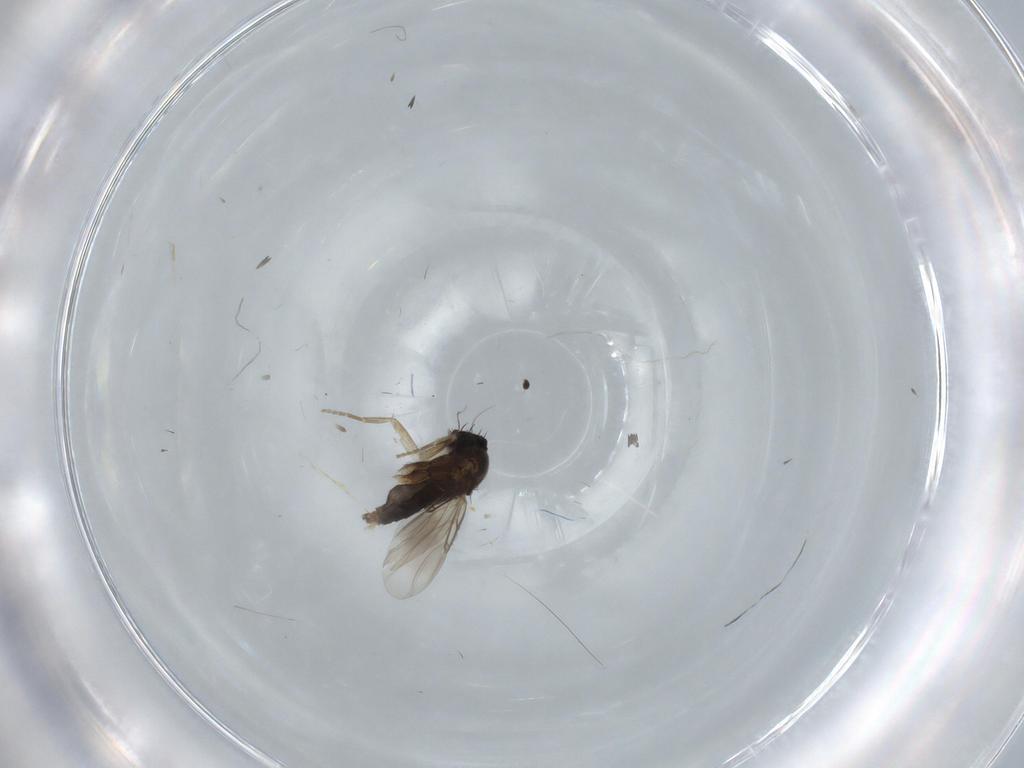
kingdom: Animalia
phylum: Arthropoda
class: Insecta
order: Diptera
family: Phoridae
